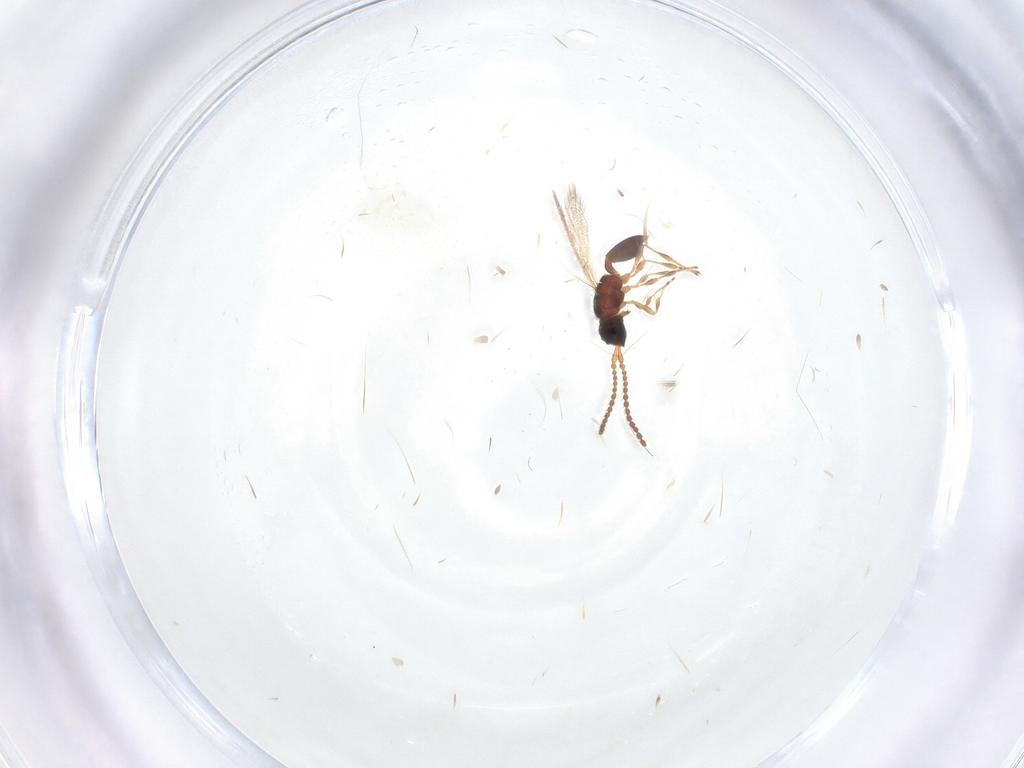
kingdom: Animalia
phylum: Arthropoda
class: Insecta
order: Hymenoptera
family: Diapriidae
